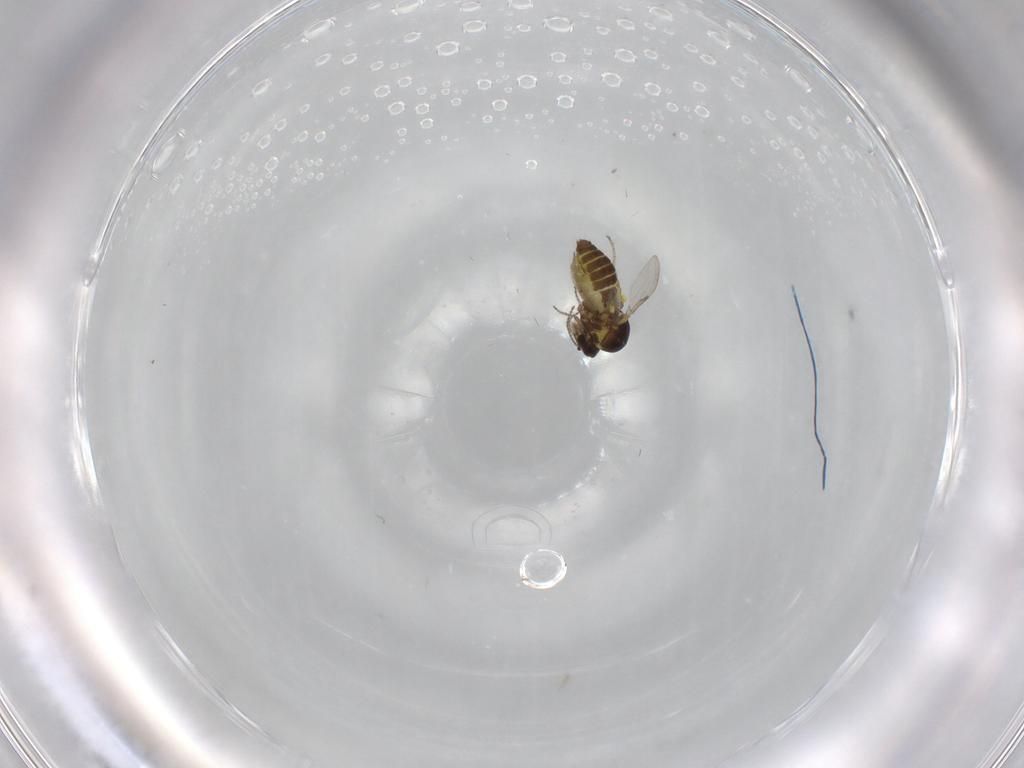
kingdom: Animalia
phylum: Arthropoda
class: Insecta
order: Diptera
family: Ceratopogonidae
